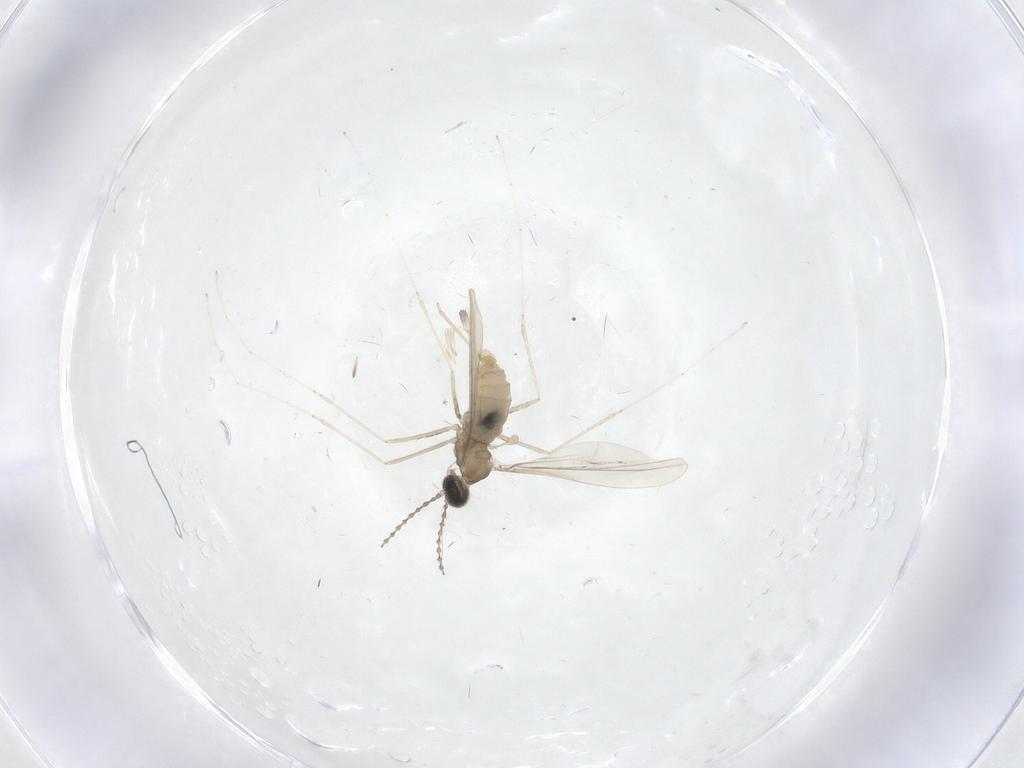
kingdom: Animalia
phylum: Arthropoda
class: Insecta
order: Diptera
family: Cecidomyiidae
